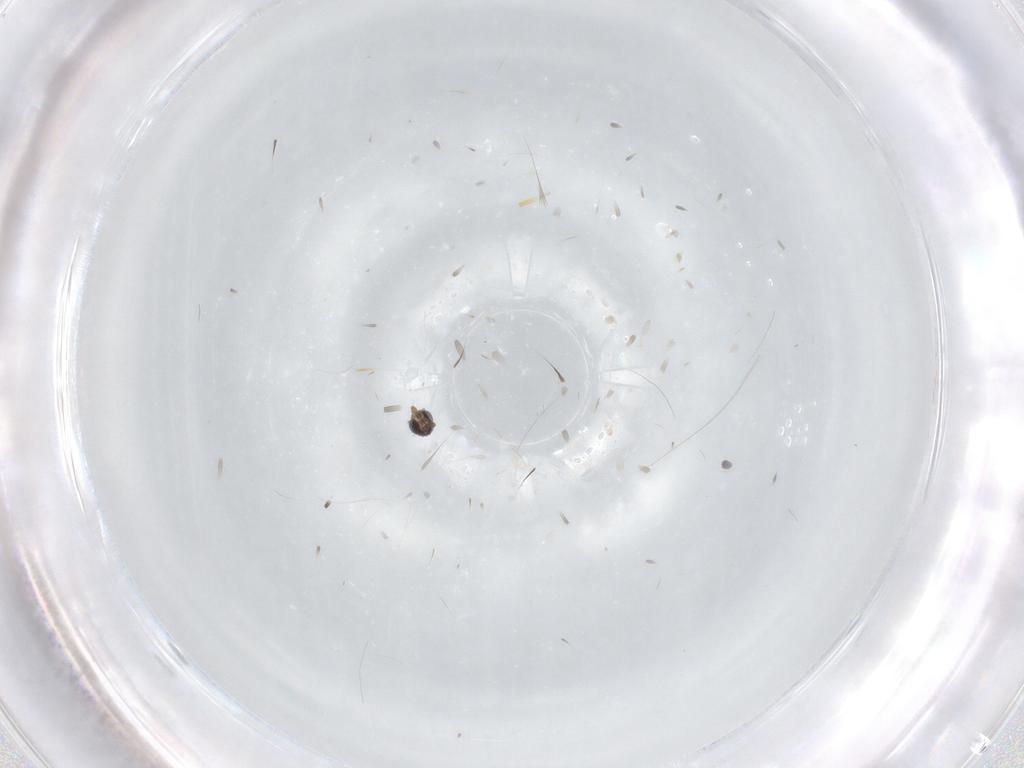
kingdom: Animalia
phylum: Arthropoda
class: Insecta
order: Diptera
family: Cecidomyiidae
